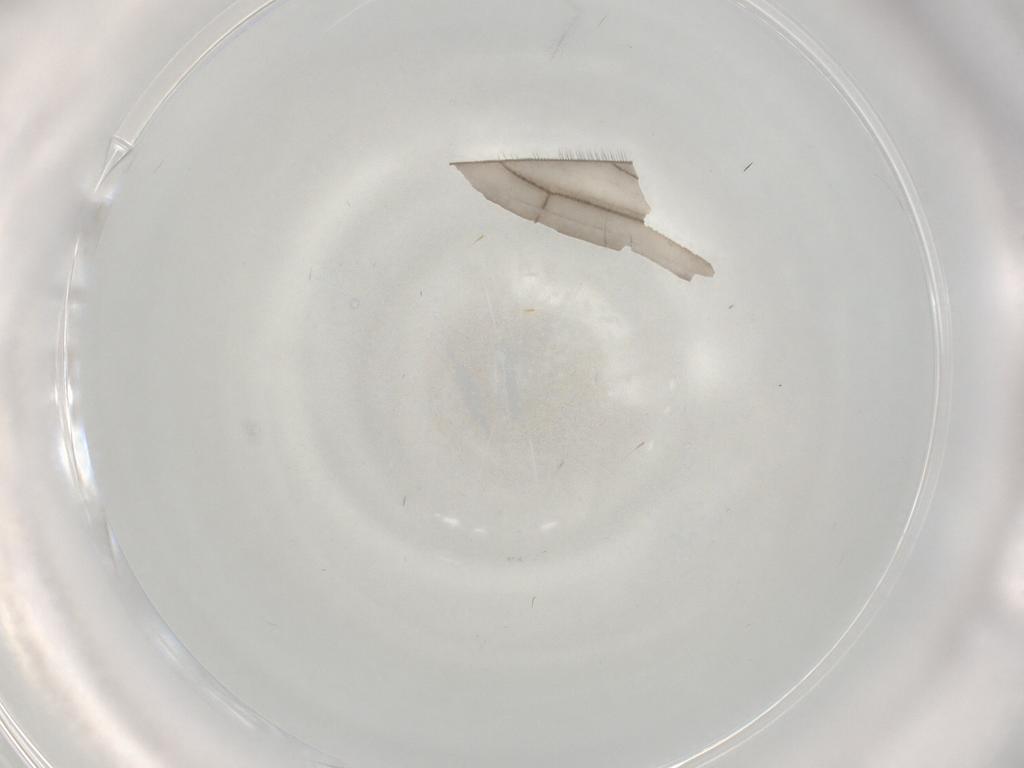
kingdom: Animalia
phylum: Arthropoda
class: Insecta
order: Diptera
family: Limoniidae
